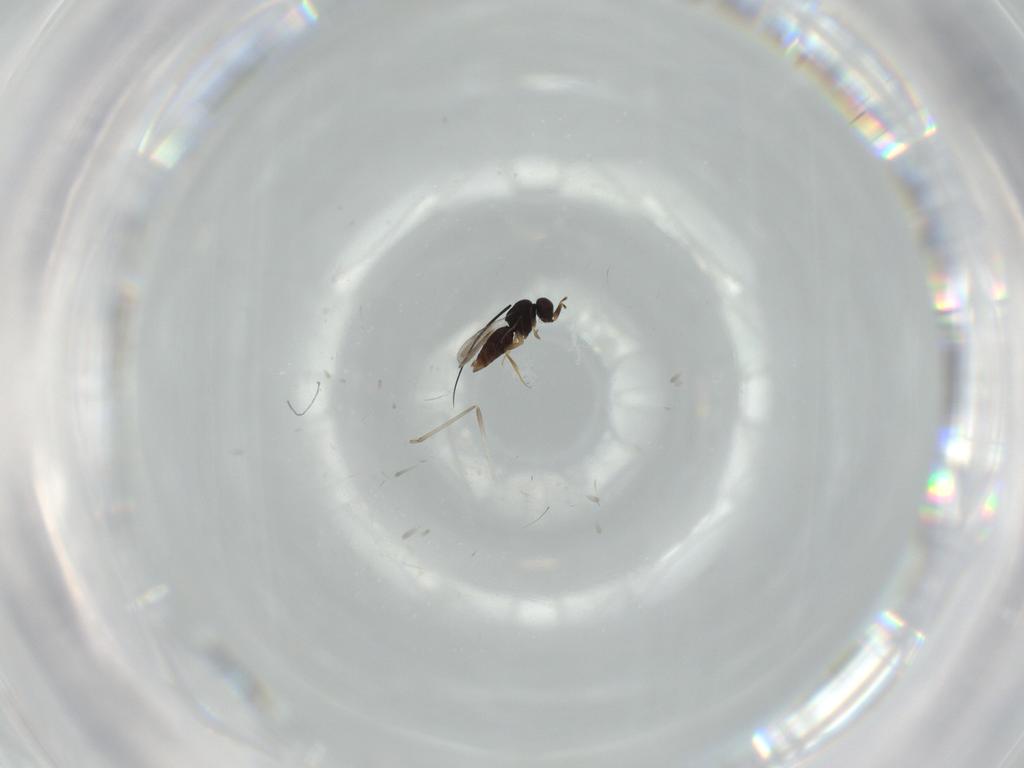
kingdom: Animalia
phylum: Arthropoda
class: Insecta
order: Hymenoptera
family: Ceraphronidae
